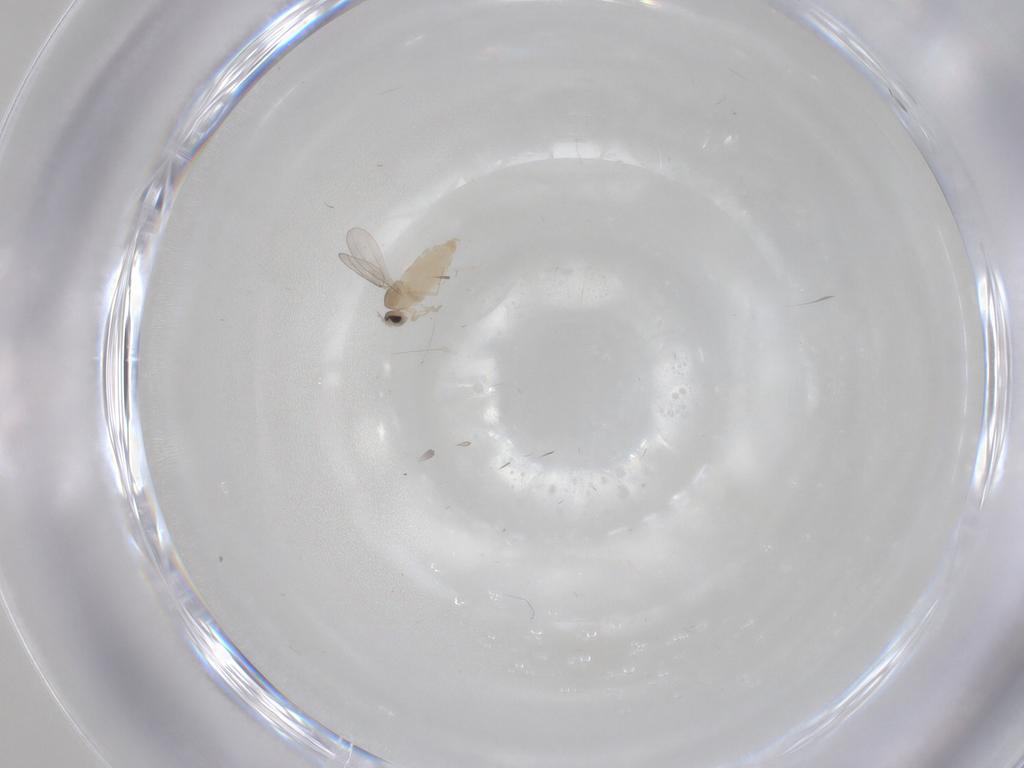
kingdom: Animalia
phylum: Arthropoda
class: Insecta
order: Diptera
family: Cecidomyiidae
